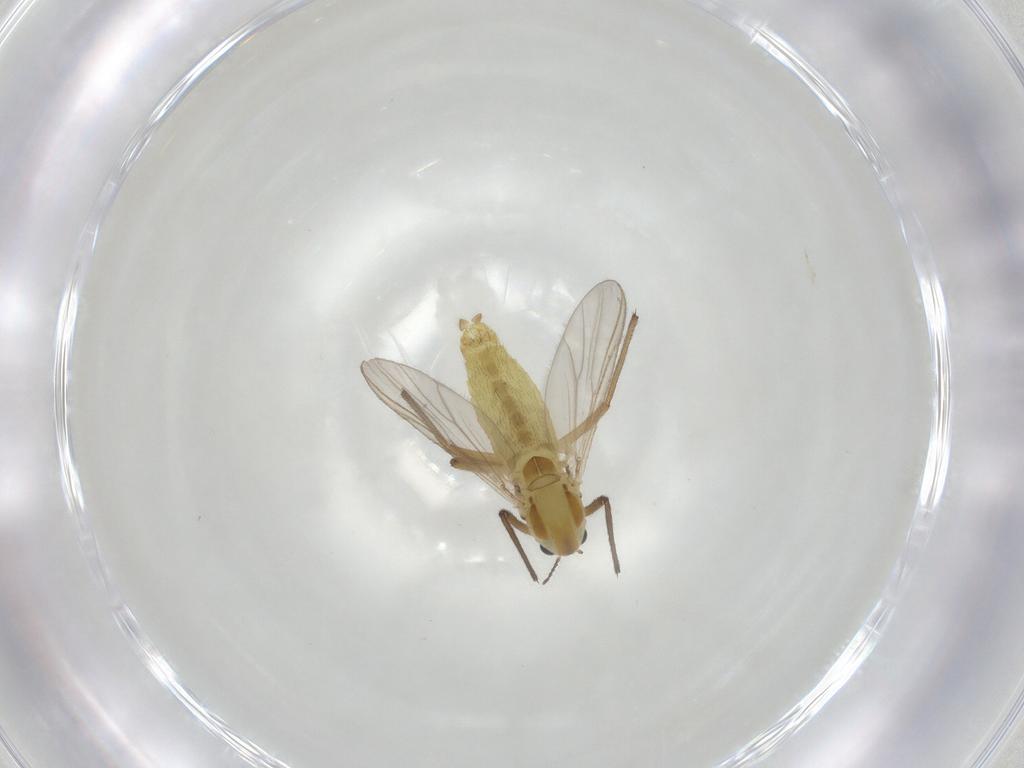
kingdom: Animalia
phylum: Arthropoda
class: Insecta
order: Diptera
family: Chironomidae
